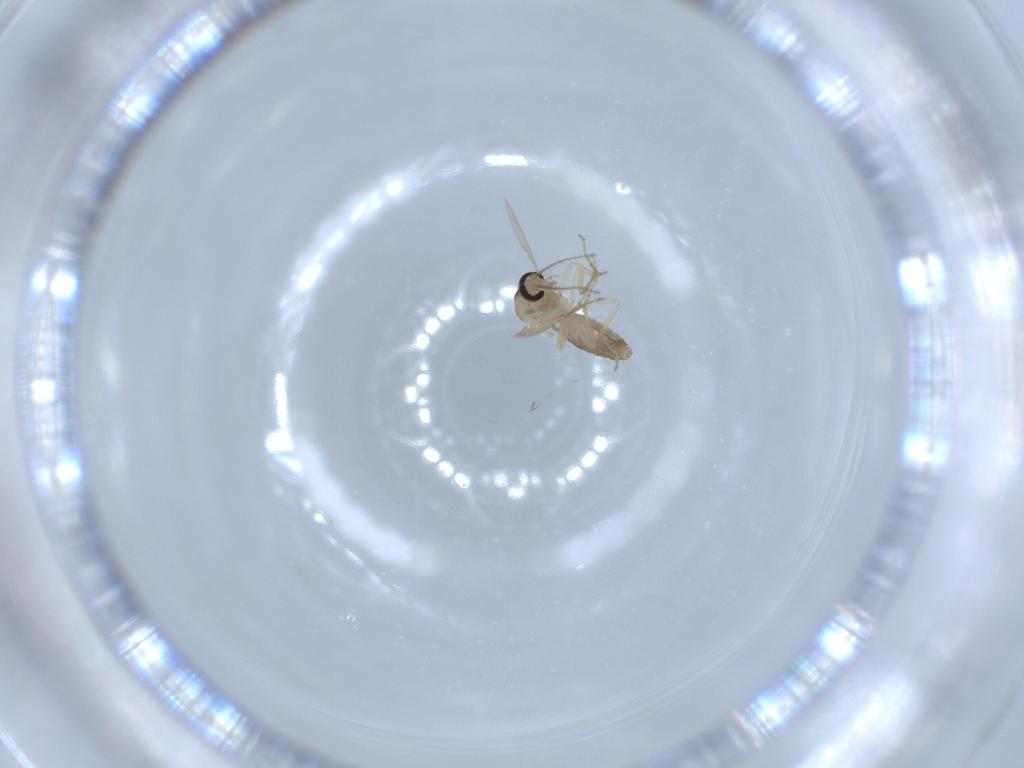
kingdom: Animalia
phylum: Arthropoda
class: Insecta
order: Diptera
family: Ceratopogonidae
